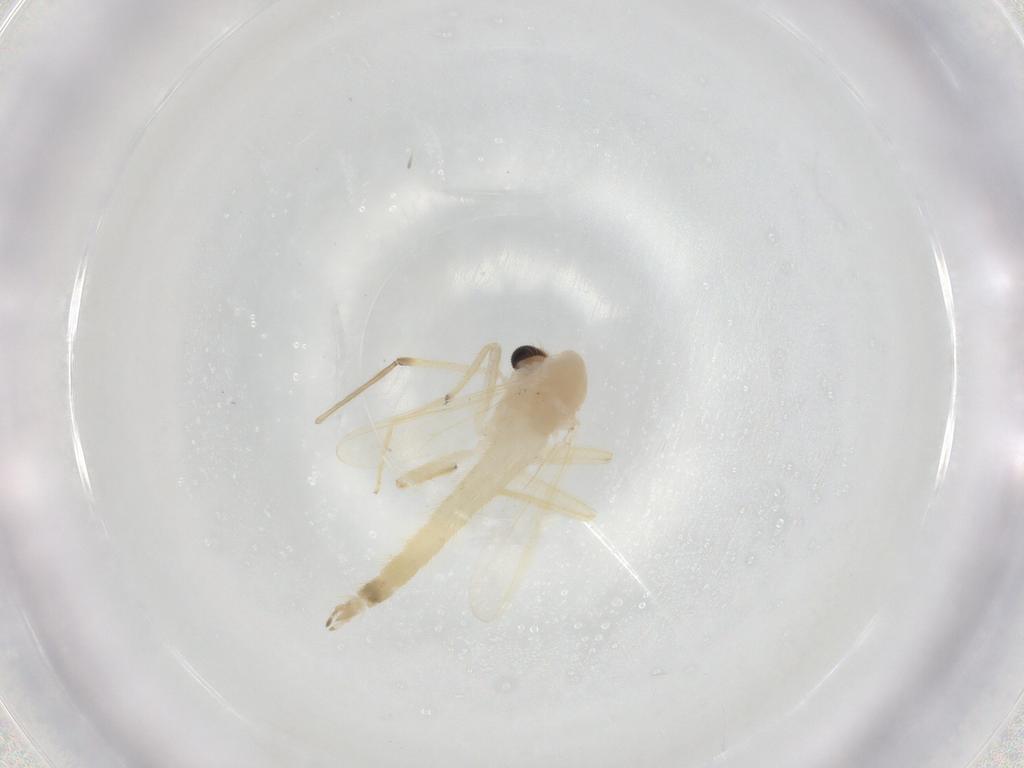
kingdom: Animalia
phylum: Arthropoda
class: Insecta
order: Diptera
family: Chironomidae
